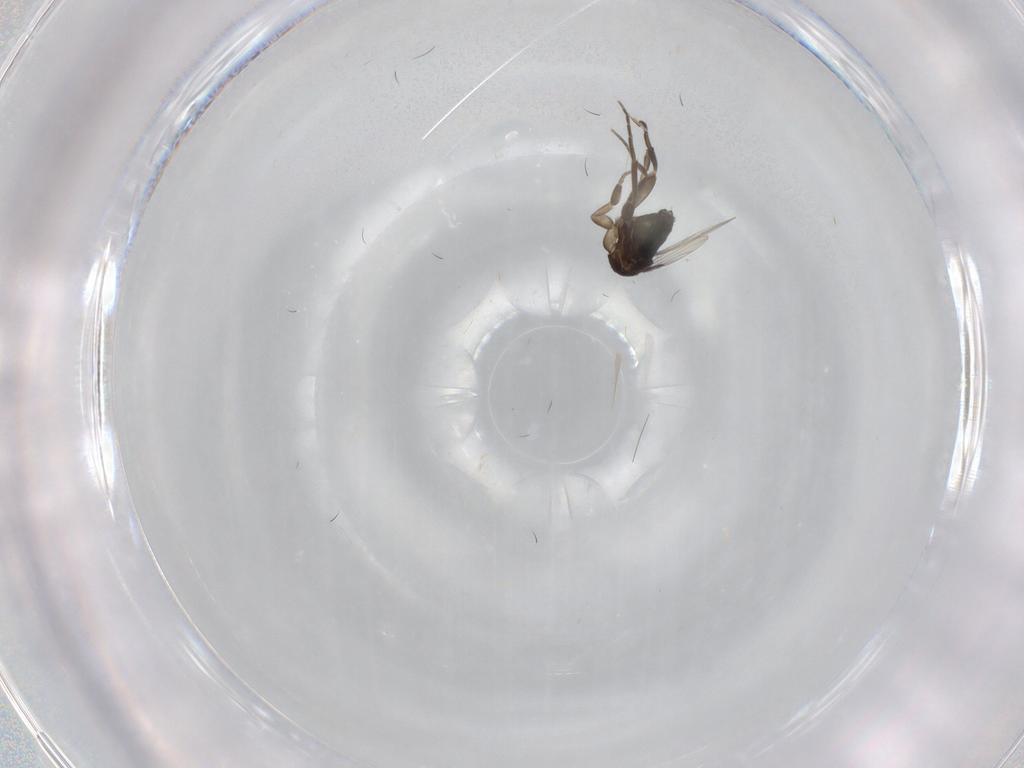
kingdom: Animalia
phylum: Arthropoda
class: Insecta
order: Diptera
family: Phoridae
